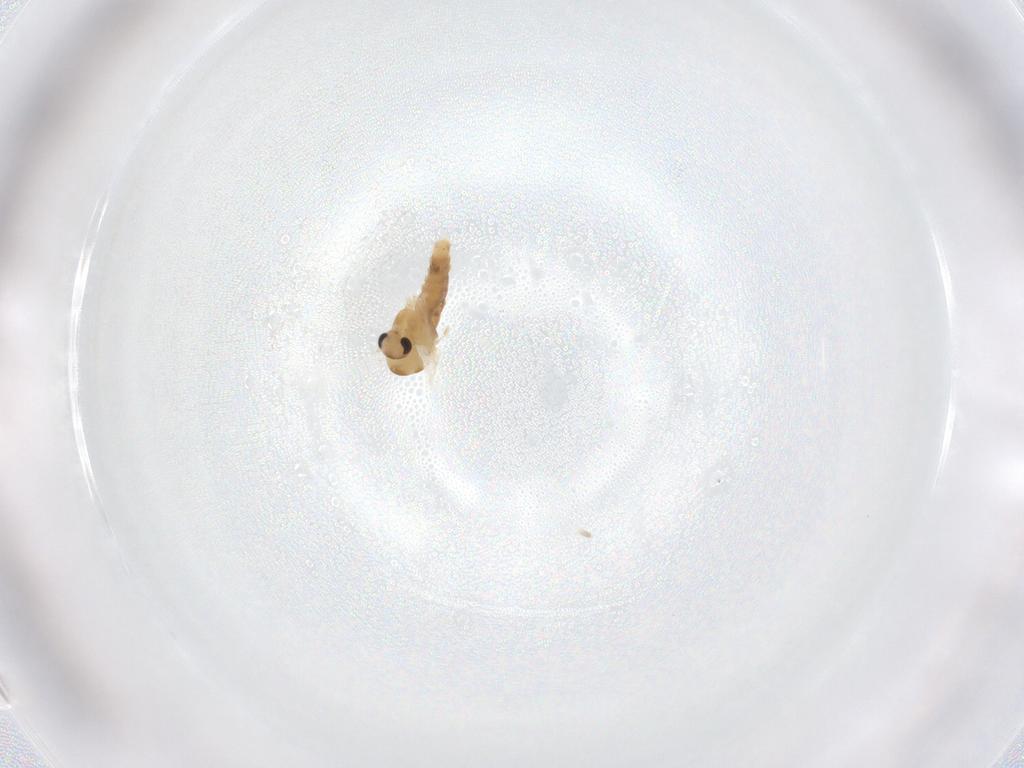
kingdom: Animalia
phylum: Arthropoda
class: Insecta
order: Diptera
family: Chironomidae
